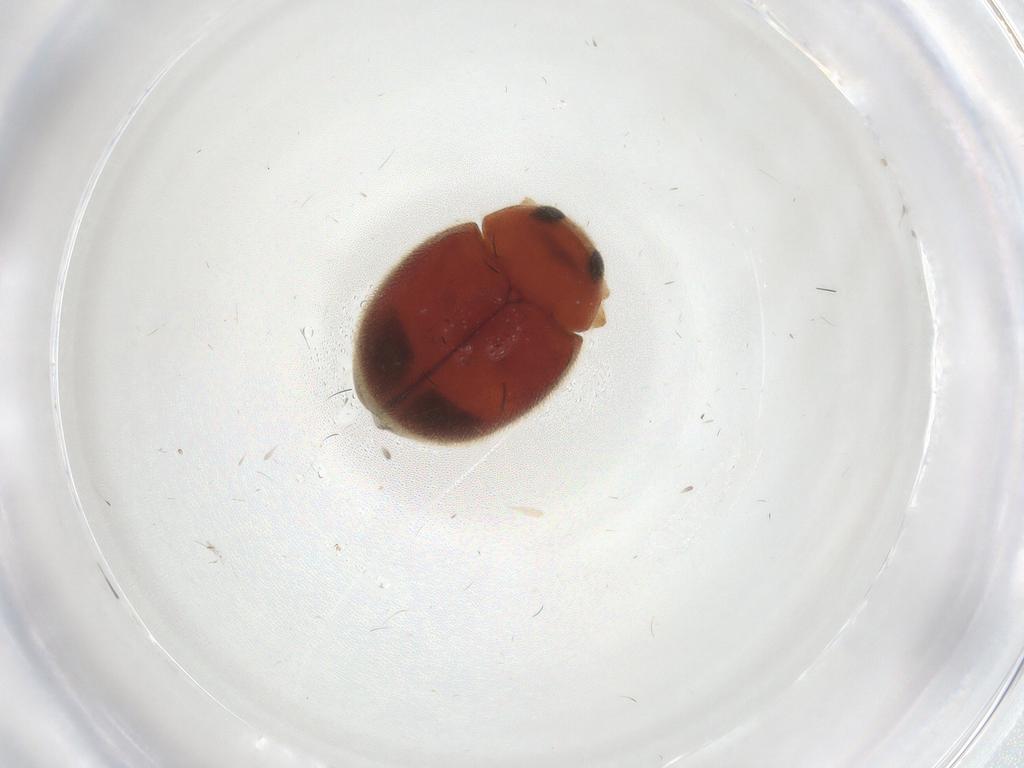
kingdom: Animalia
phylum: Arthropoda
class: Insecta
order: Coleoptera
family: Coccinellidae
